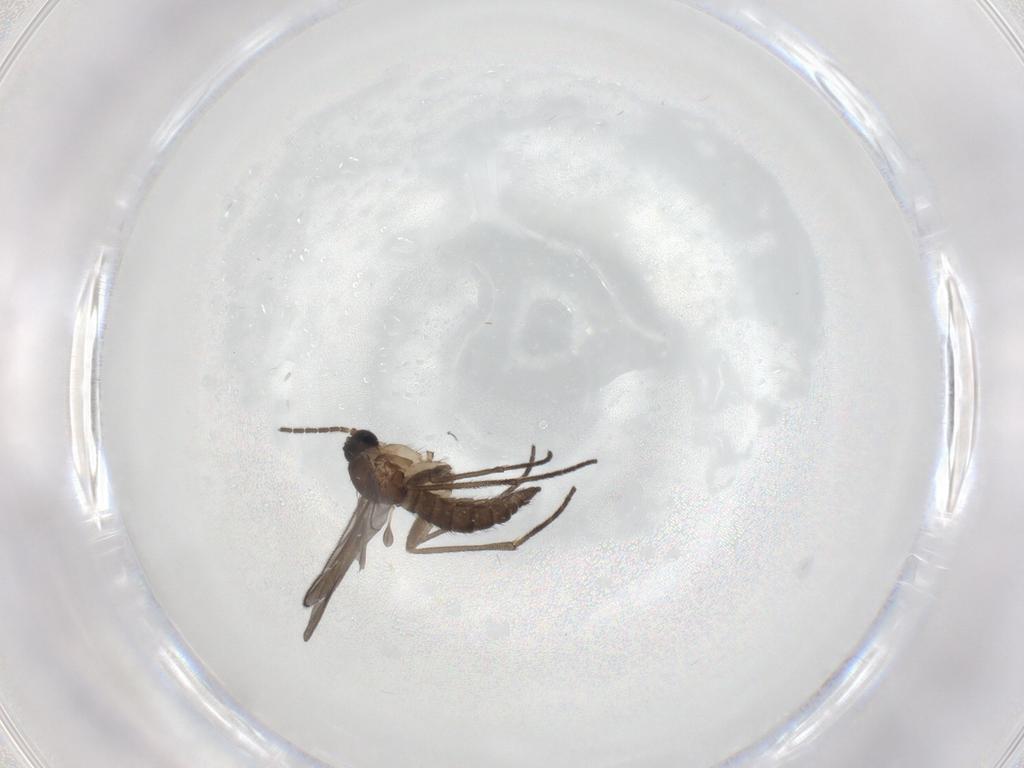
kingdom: Animalia
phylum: Arthropoda
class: Insecta
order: Diptera
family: Sciaridae
